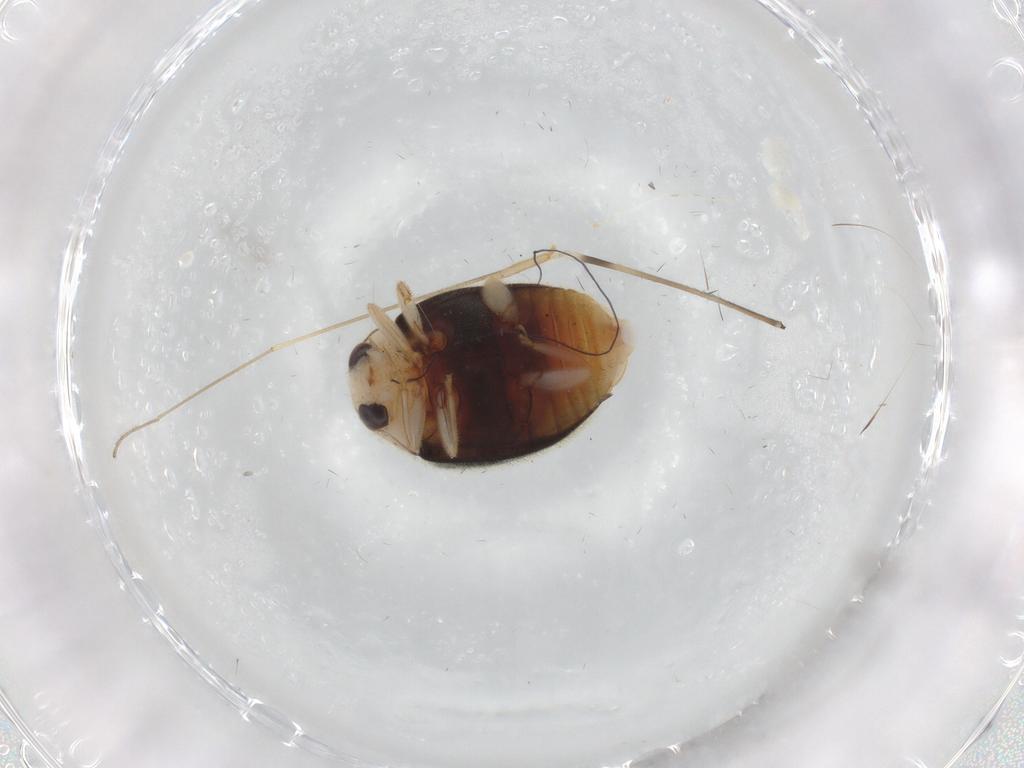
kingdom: Animalia
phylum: Arthropoda
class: Insecta
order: Coleoptera
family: Coccinellidae
